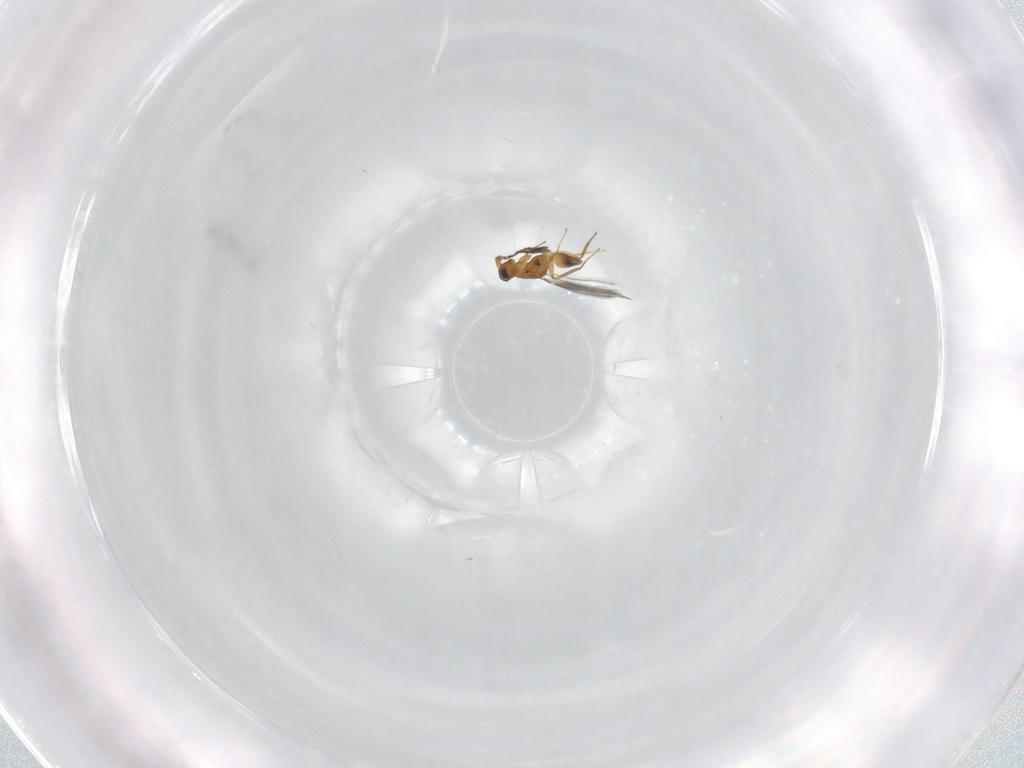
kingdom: Animalia
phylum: Arthropoda
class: Insecta
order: Hymenoptera
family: Mymaridae
